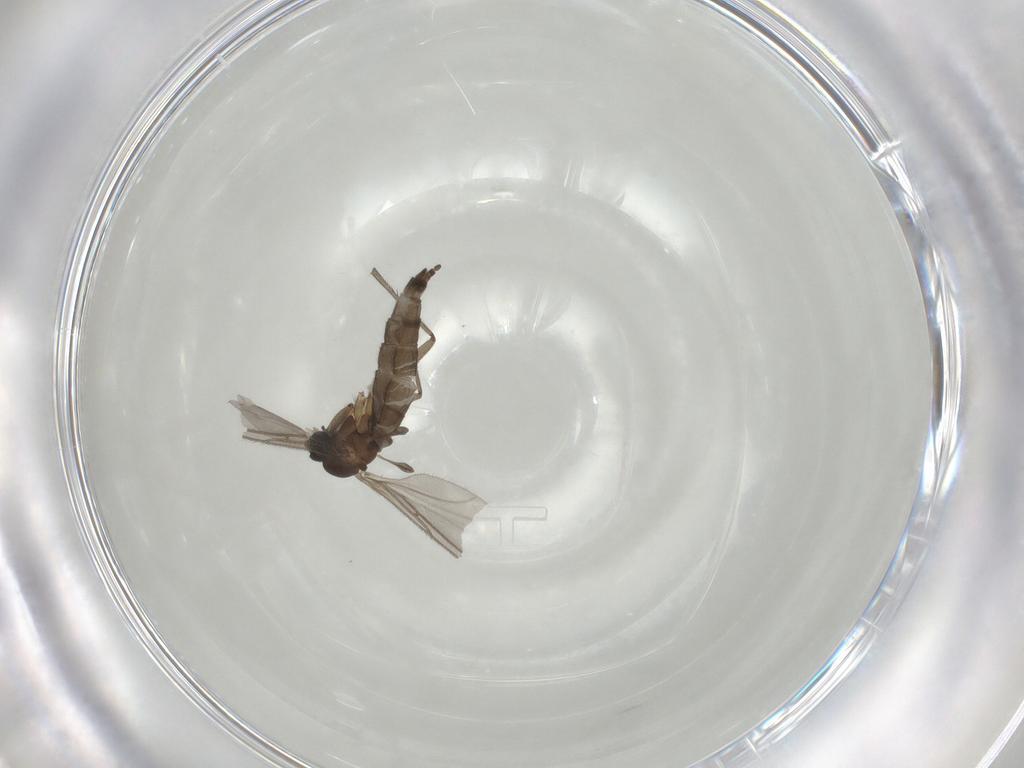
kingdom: Animalia
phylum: Arthropoda
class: Insecta
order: Diptera
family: Sciaridae
